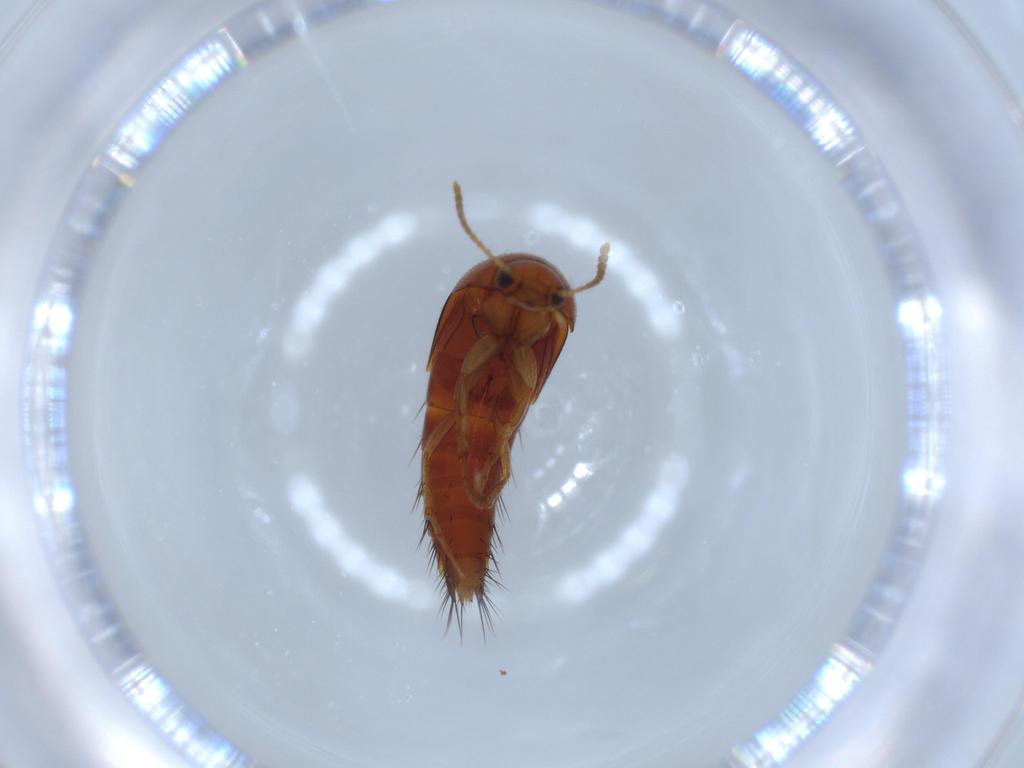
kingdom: Animalia
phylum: Arthropoda
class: Insecta
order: Coleoptera
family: Staphylinidae
